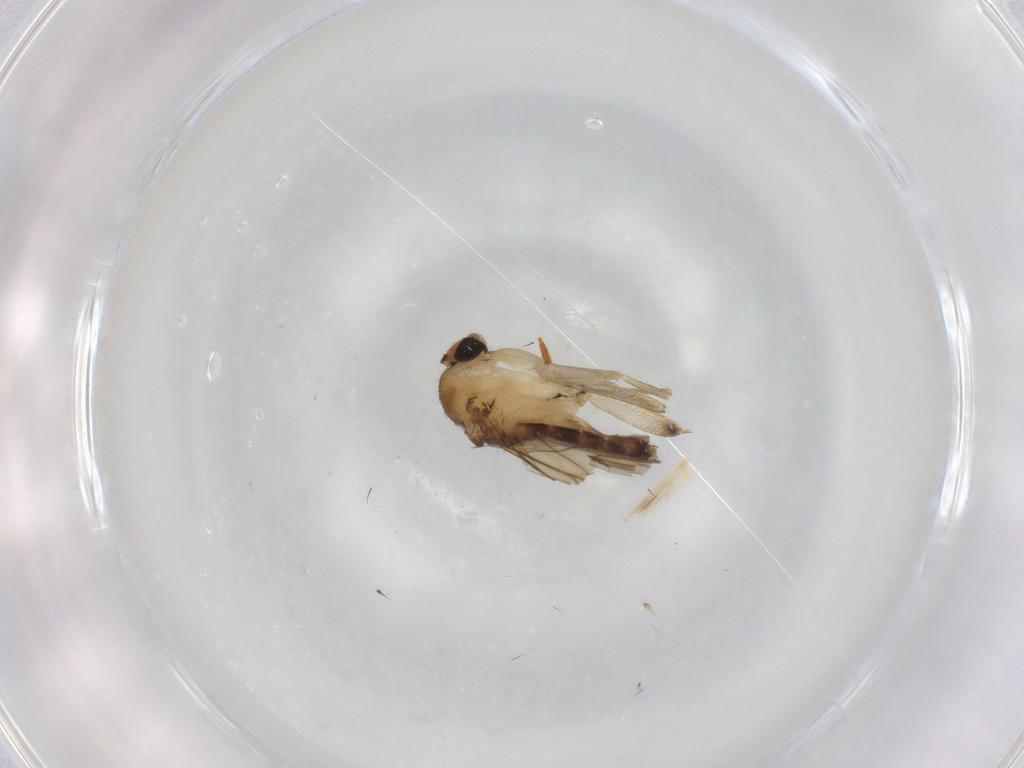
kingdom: Animalia
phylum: Arthropoda
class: Insecta
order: Diptera
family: Phoridae
